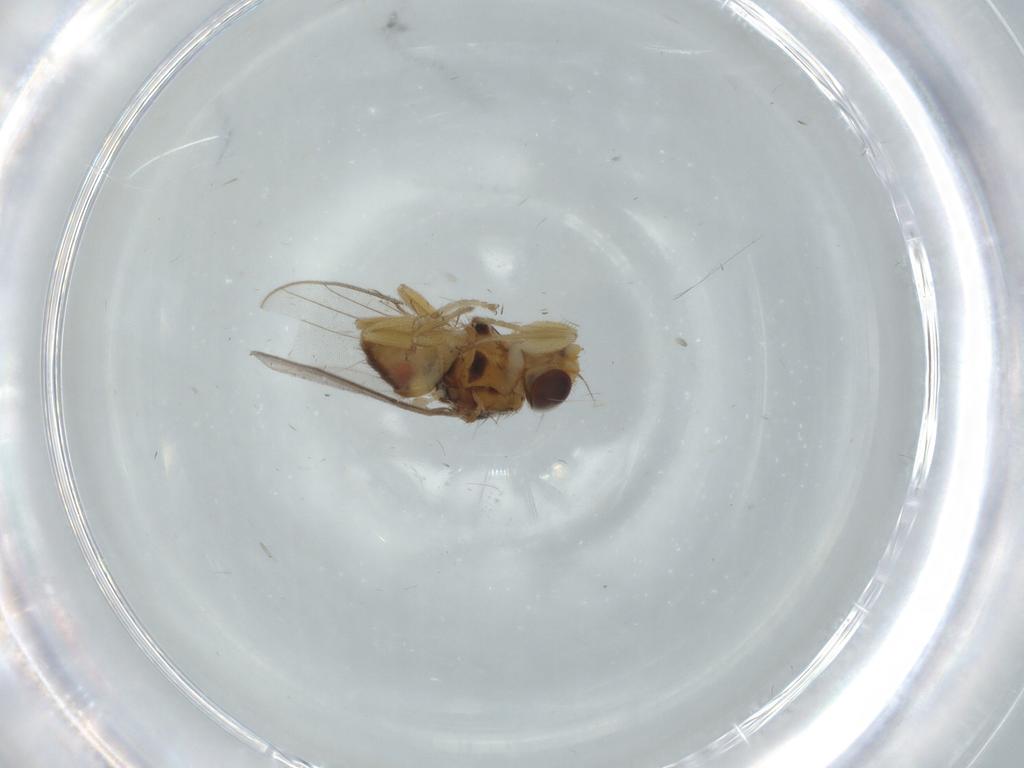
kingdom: Animalia
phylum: Arthropoda
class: Insecta
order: Diptera
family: Chloropidae
